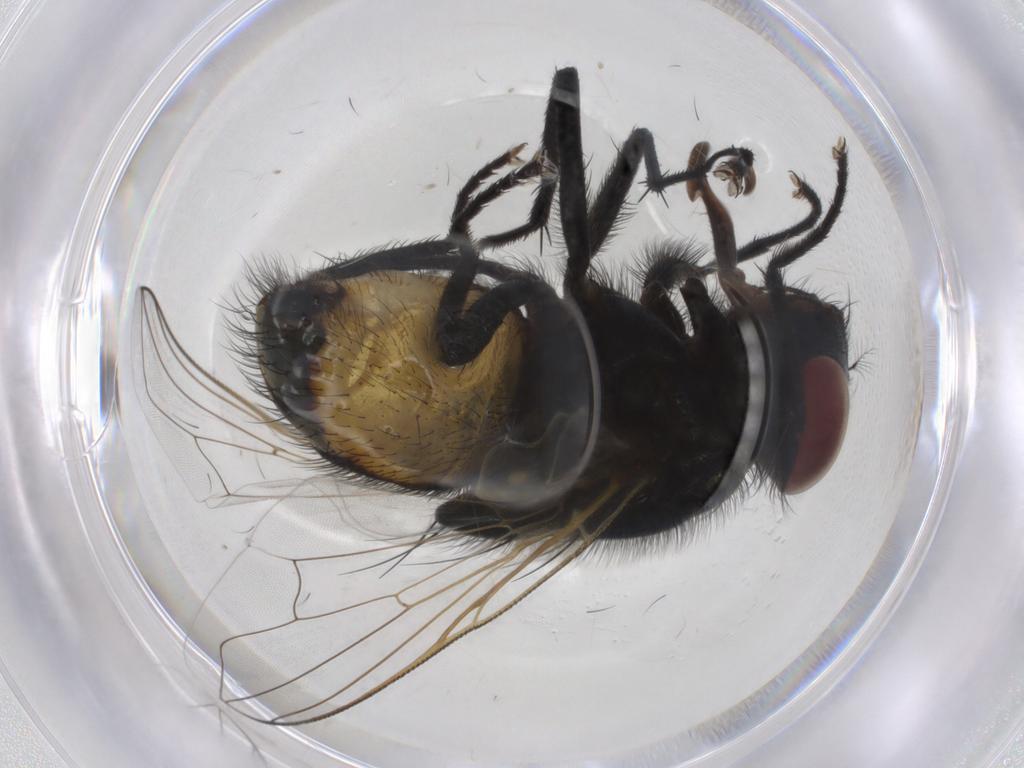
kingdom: Animalia
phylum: Arthropoda
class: Insecta
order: Diptera
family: Muscidae
